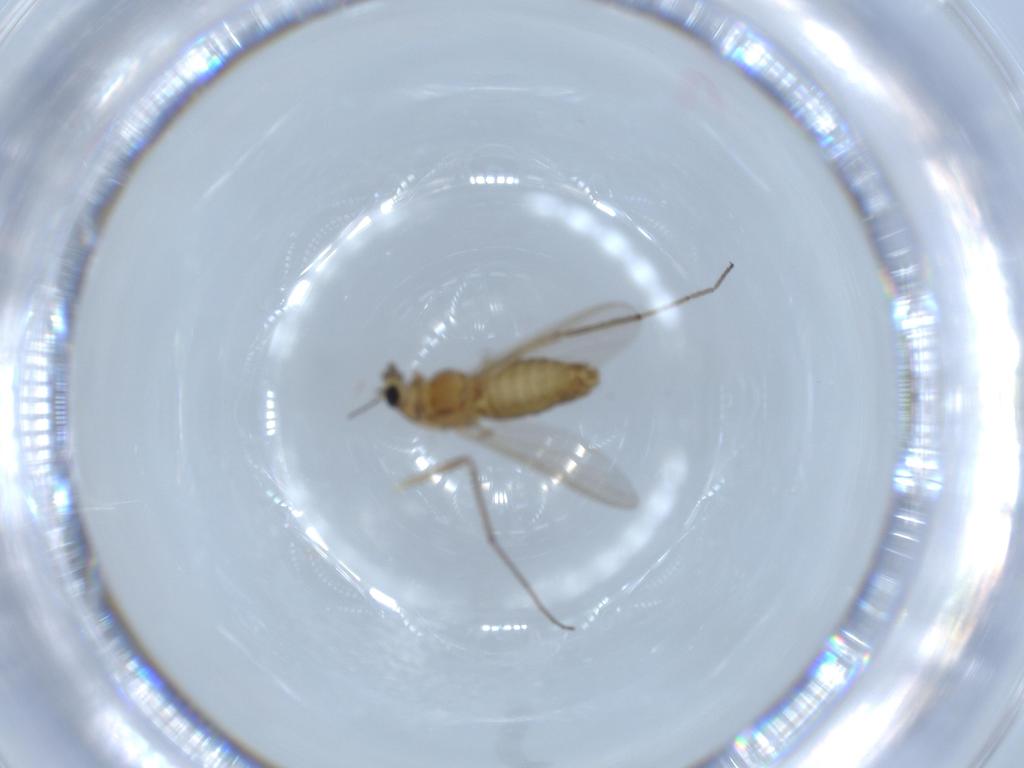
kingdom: Animalia
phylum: Arthropoda
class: Insecta
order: Diptera
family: Chironomidae
